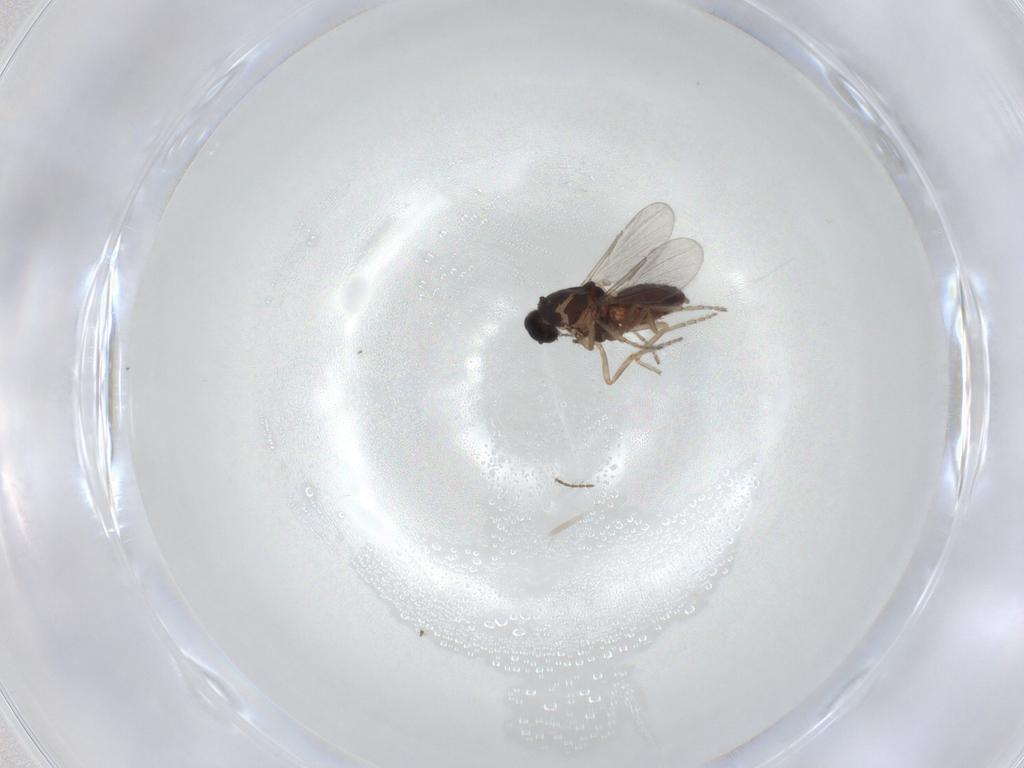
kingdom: Animalia
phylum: Arthropoda
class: Insecta
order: Diptera
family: Ceratopogonidae
